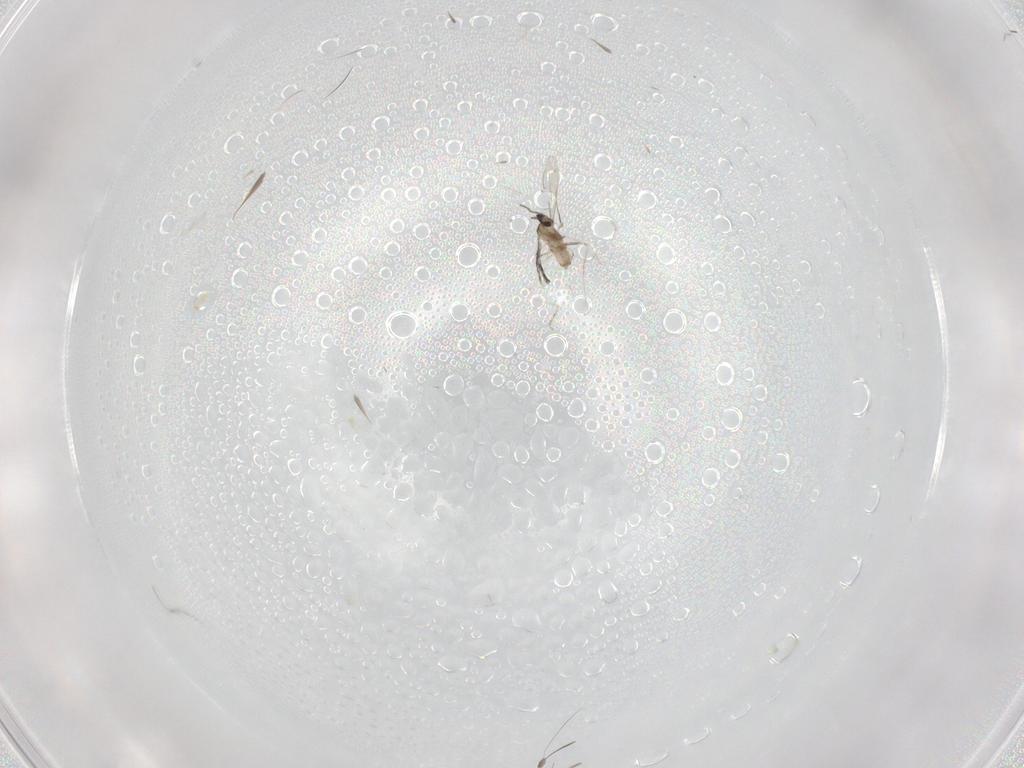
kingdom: Animalia
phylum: Arthropoda
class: Insecta
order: Diptera
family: Cecidomyiidae
